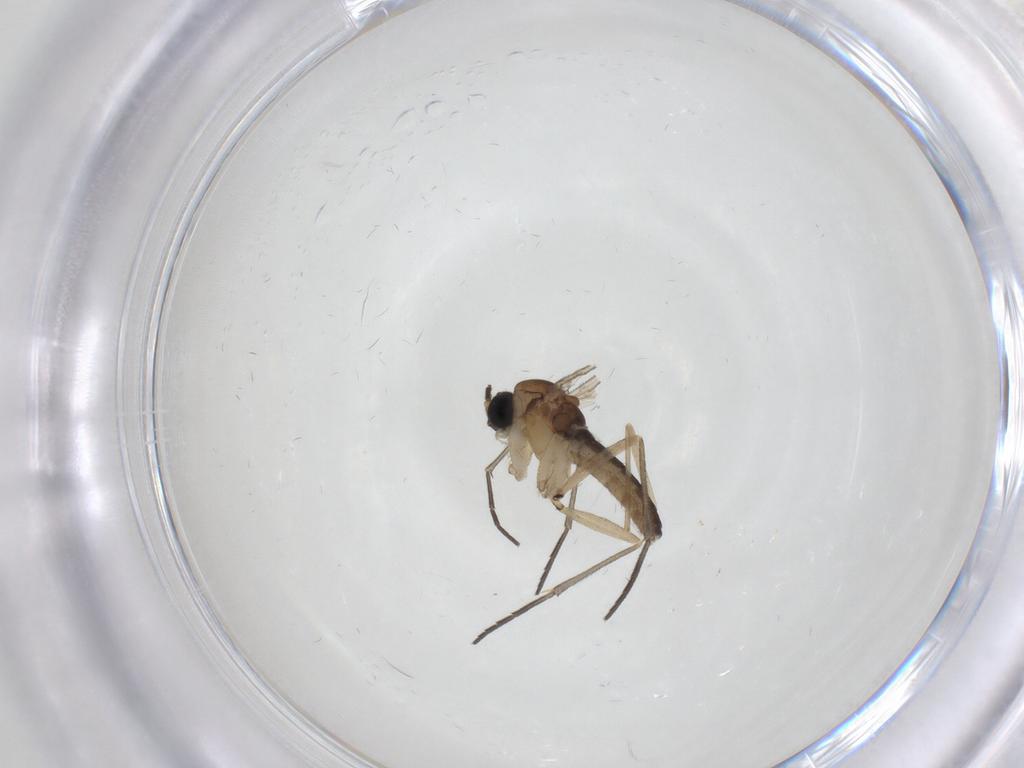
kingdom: Animalia
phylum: Arthropoda
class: Insecta
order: Diptera
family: Sciaridae
